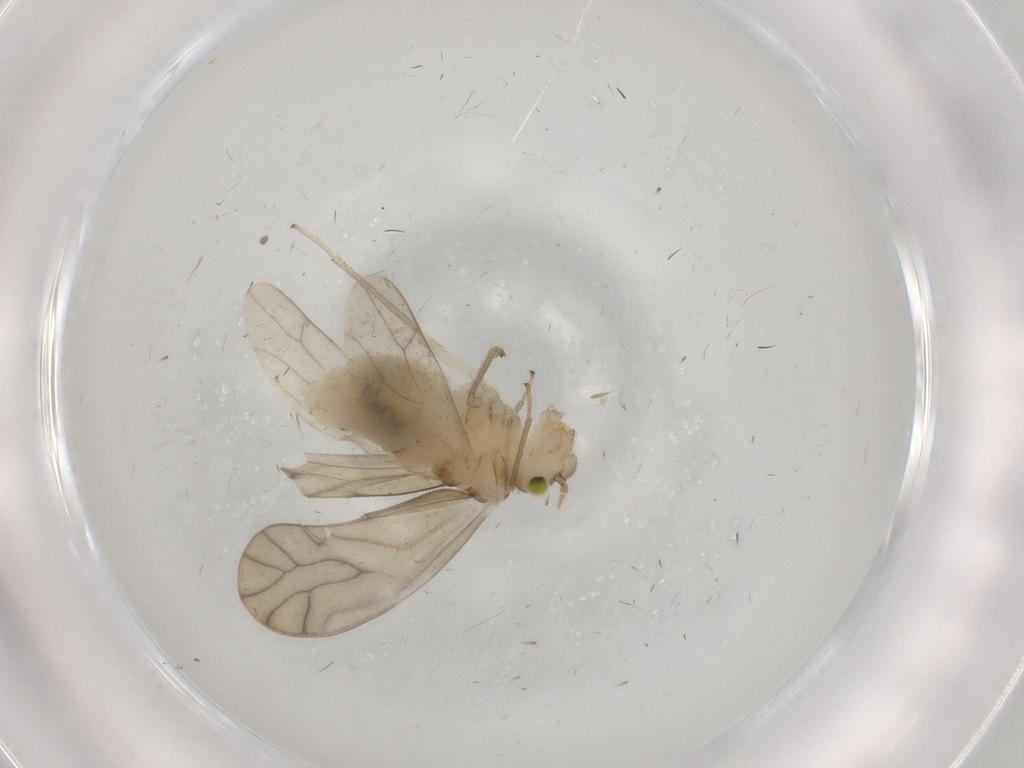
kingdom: Animalia
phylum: Arthropoda
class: Insecta
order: Psocodea
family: Caeciliusidae
